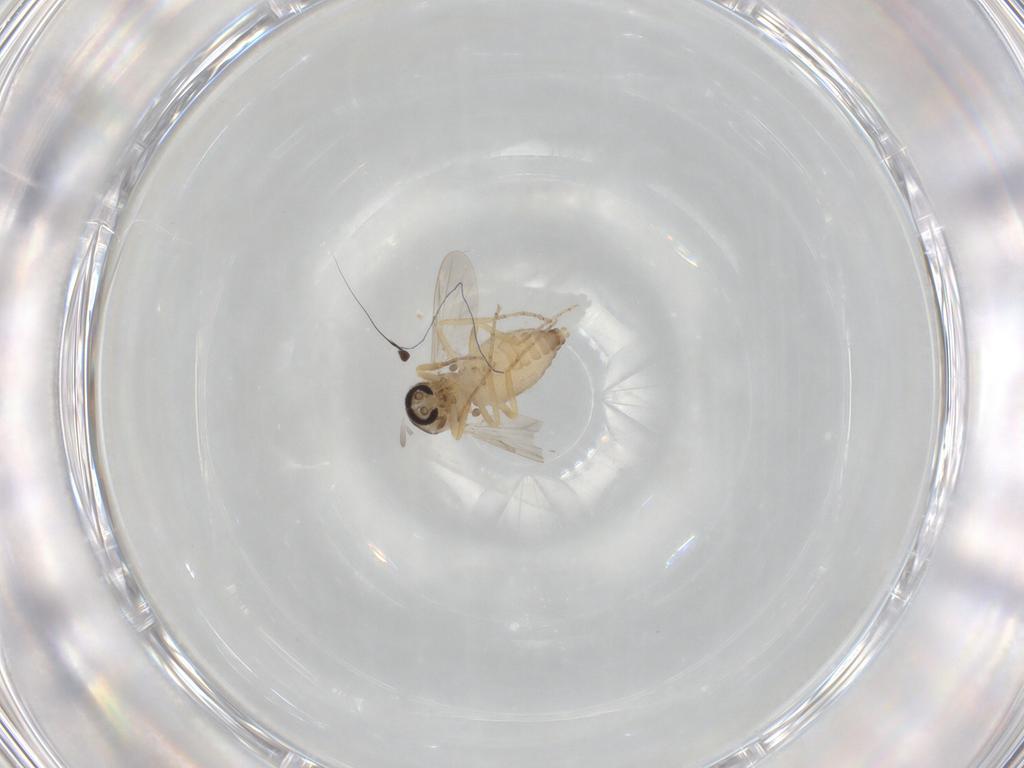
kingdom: Animalia
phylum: Arthropoda
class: Insecta
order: Diptera
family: Ceratopogonidae
